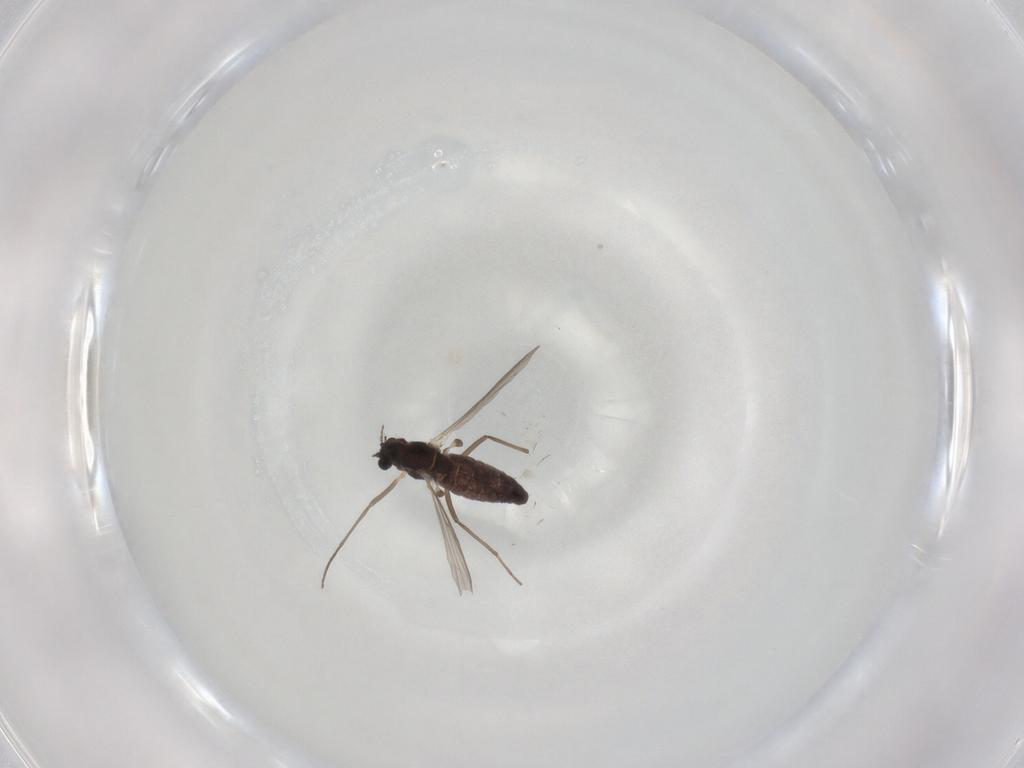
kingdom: Animalia
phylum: Arthropoda
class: Insecta
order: Diptera
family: Chironomidae
